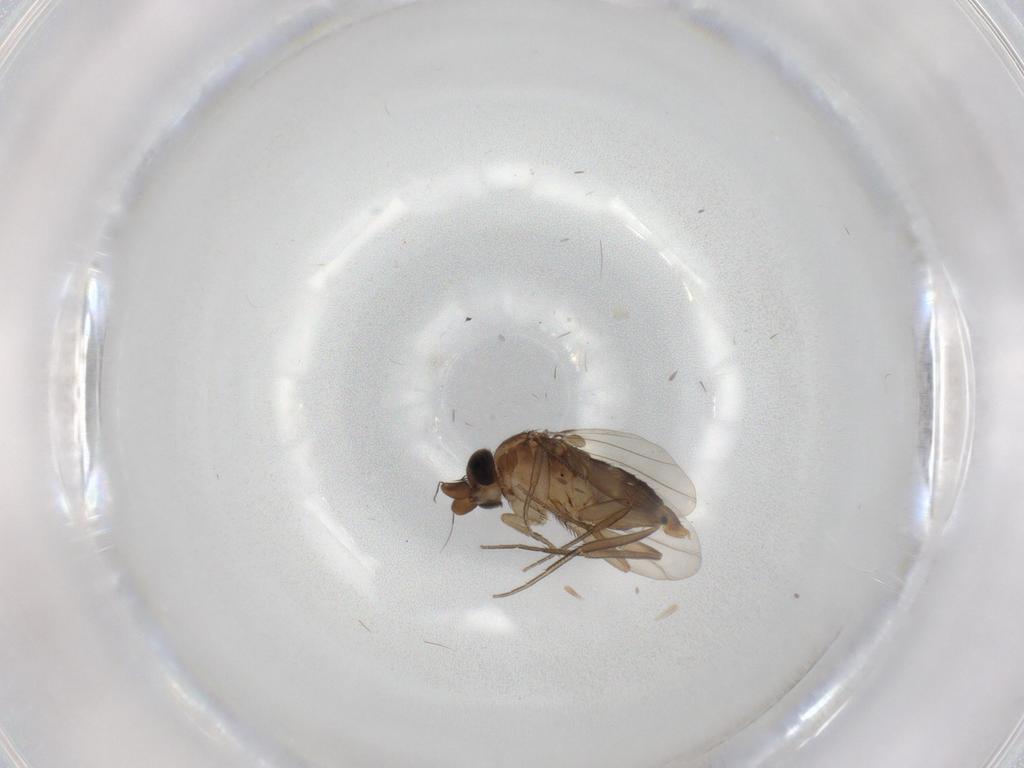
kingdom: Animalia
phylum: Arthropoda
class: Insecta
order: Diptera
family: Phoridae
